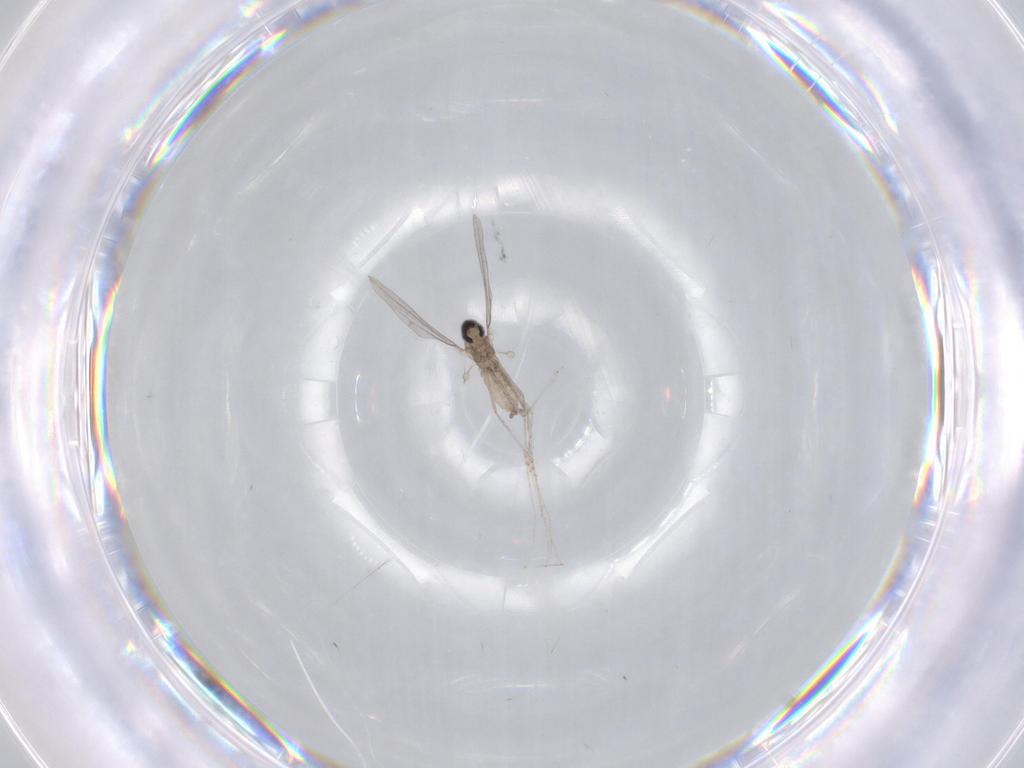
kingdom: Animalia
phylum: Arthropoda
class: Insecta
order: Diptera
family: Cecidomyiidae
